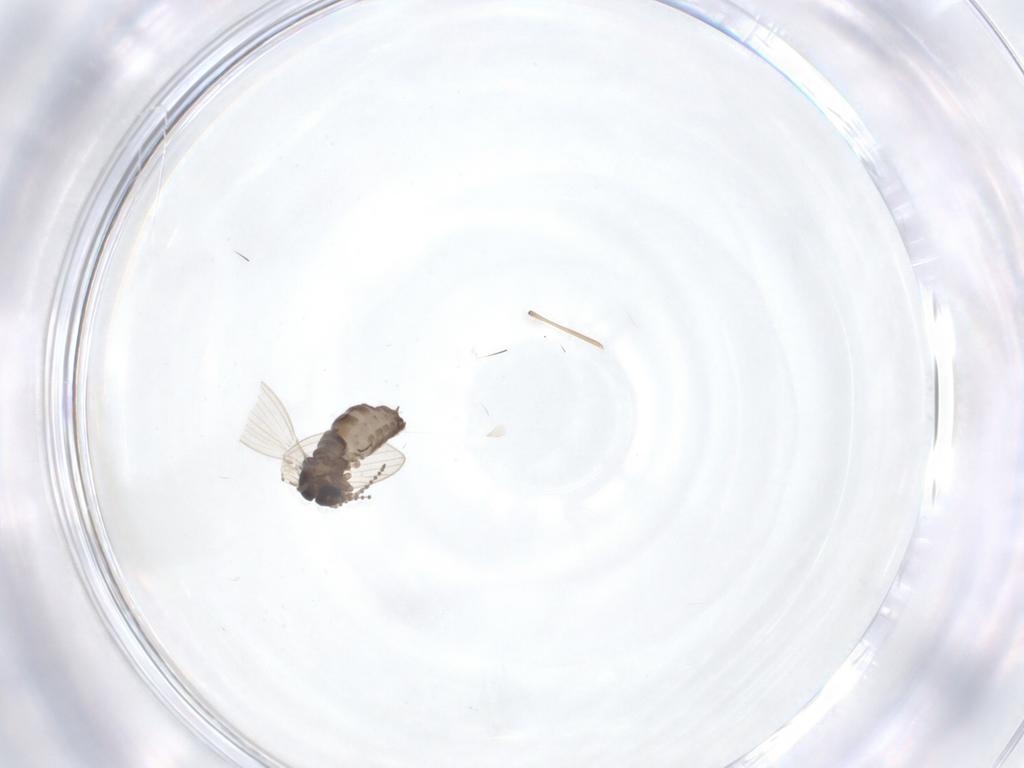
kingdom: Animalia
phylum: Arthropoda
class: Insecta
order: Diptera
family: Psychodidae
